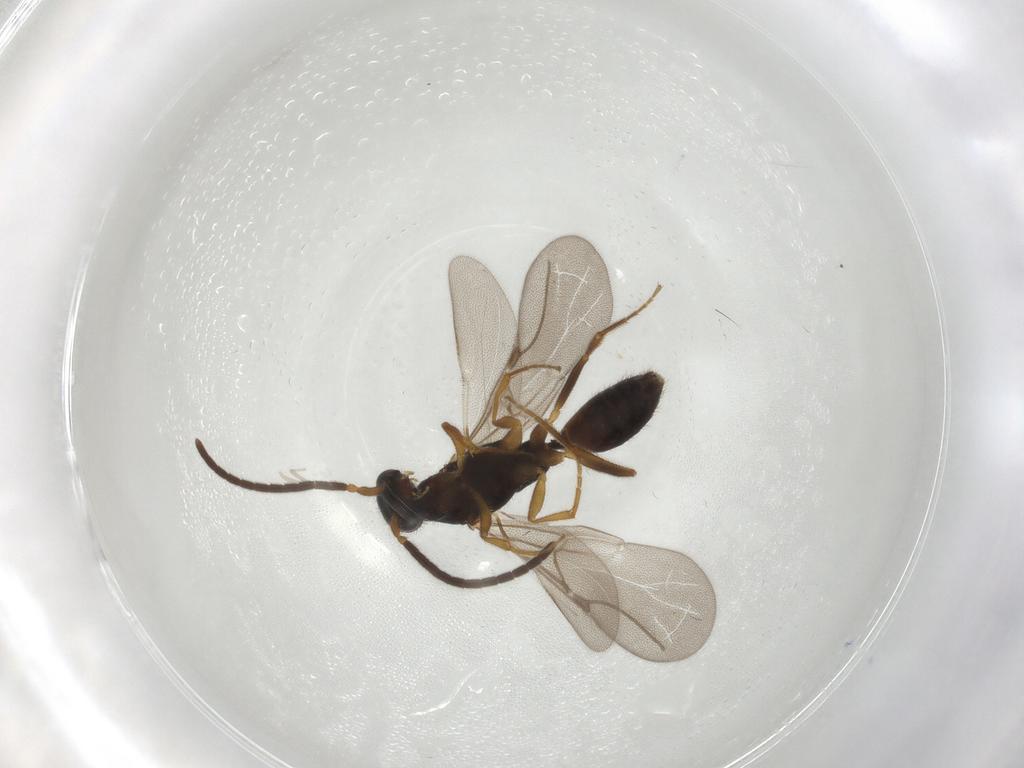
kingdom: Animalia
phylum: Arthropoda
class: Insecta
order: Hymenoptera
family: Bethylidae
